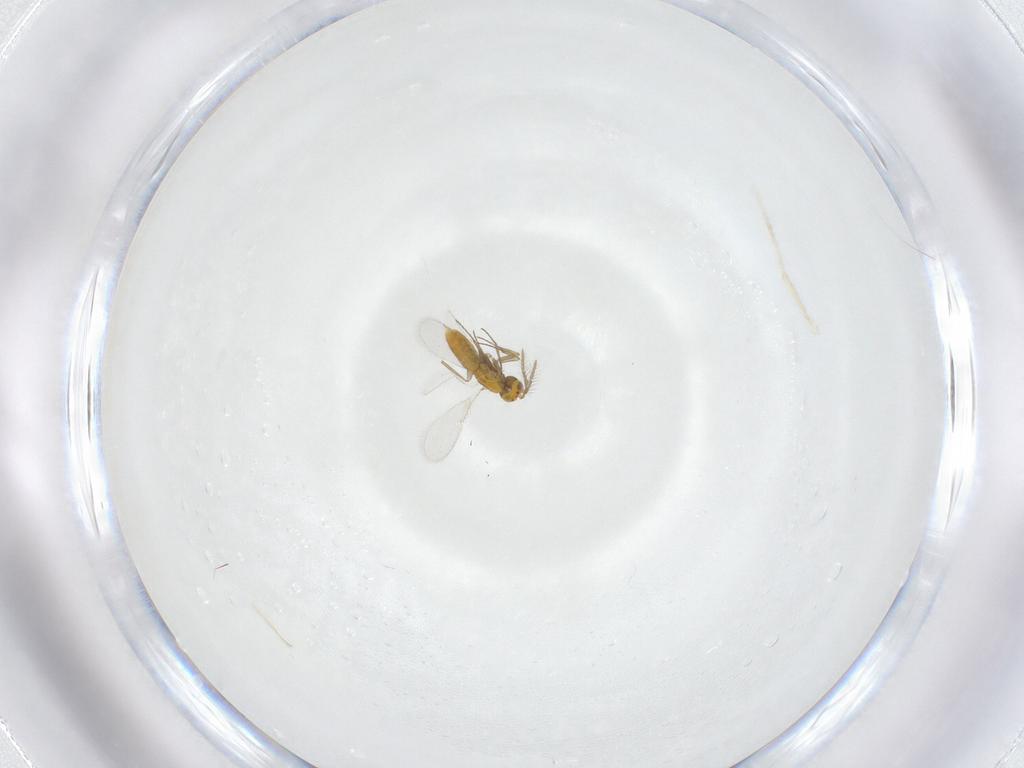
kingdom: Animalia
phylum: Arthropoda
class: Insecta
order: Hymenoptera
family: Aphelinidae
